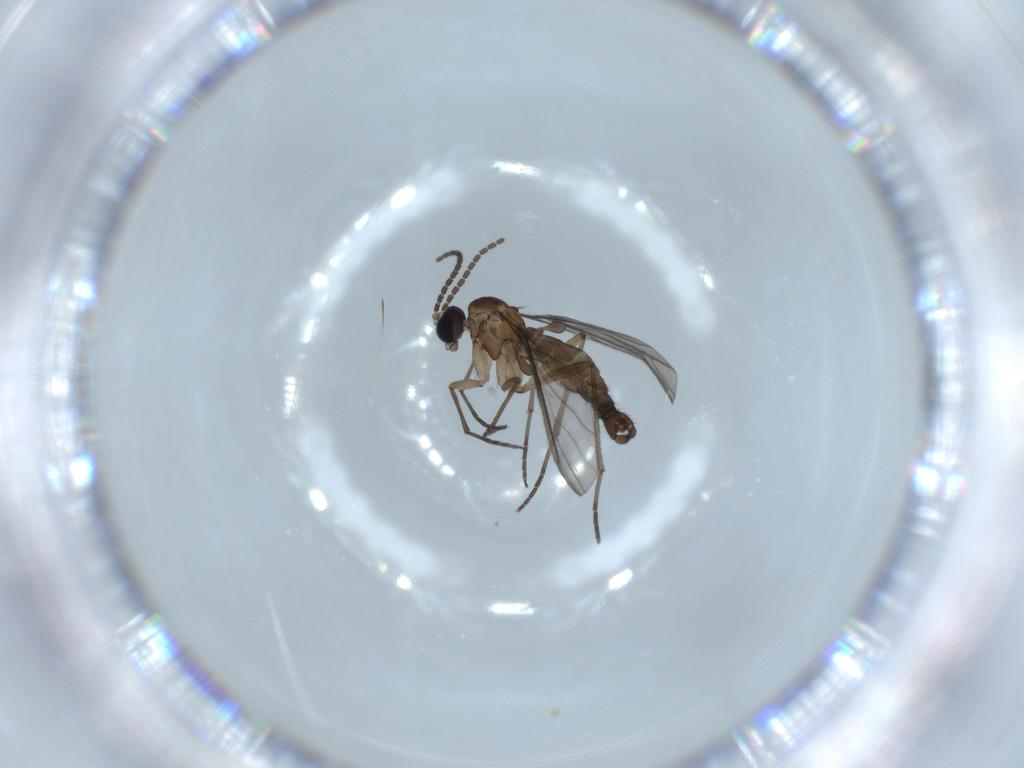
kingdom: Animalia
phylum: Arthropoda
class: Insecta
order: Diptera
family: Sciaridae
